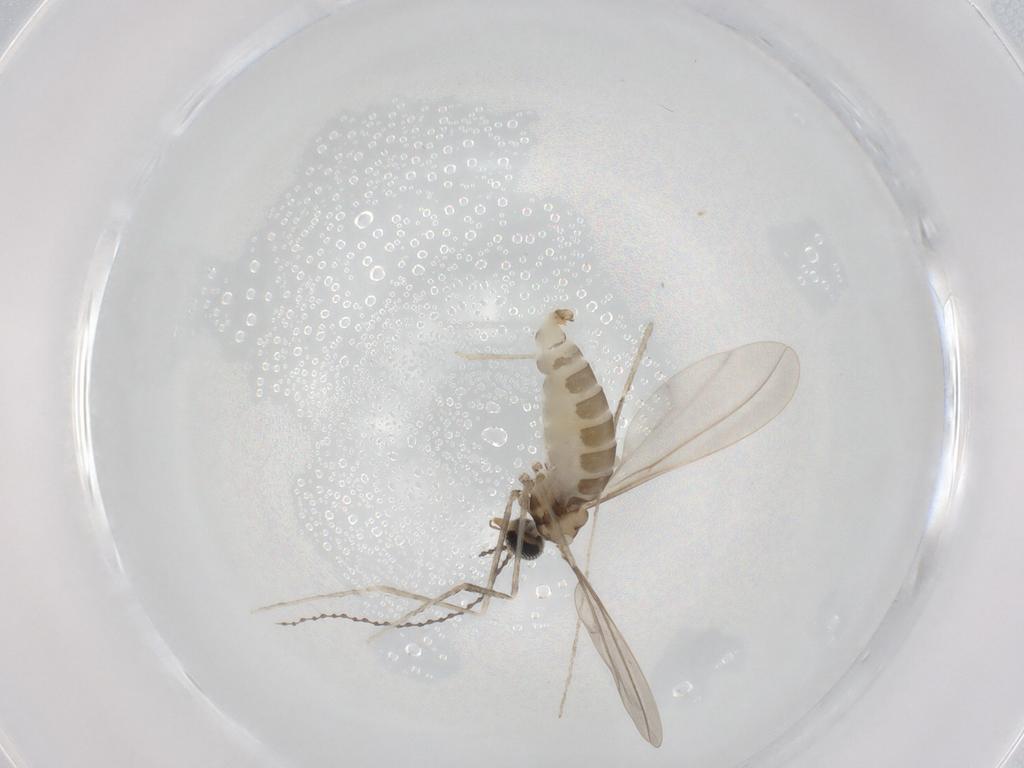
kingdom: Animalia
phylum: Arthropoda
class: Insecta
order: Diptera
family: Cecidomyiidae
